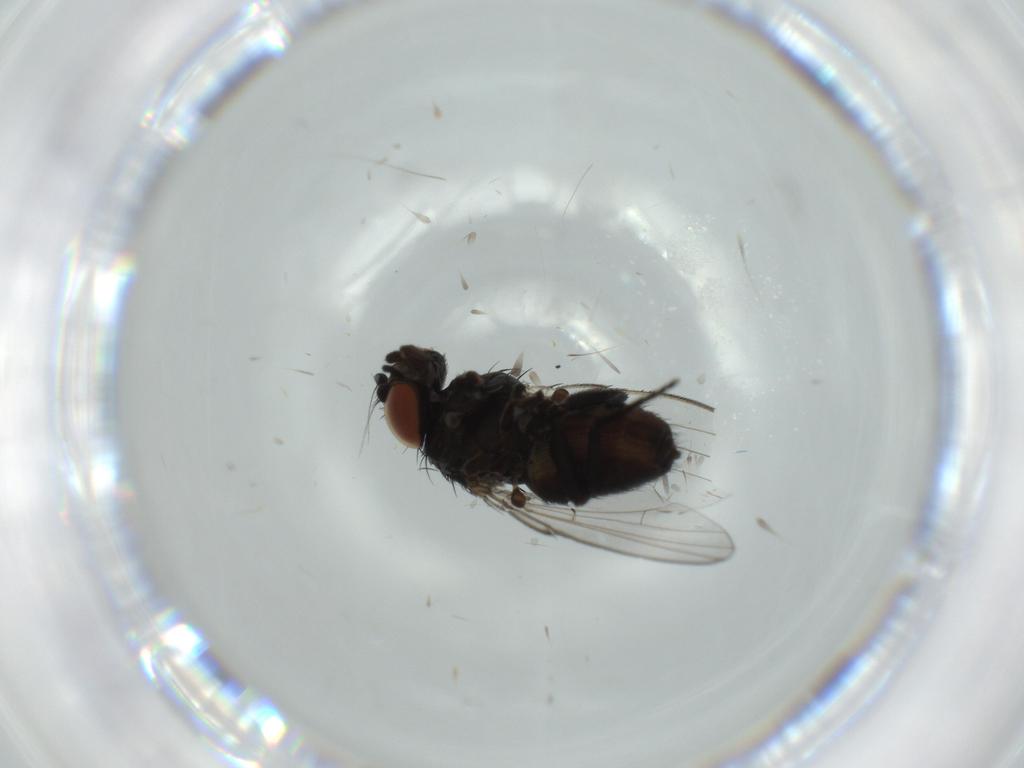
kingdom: Animalia
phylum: Arthropoda
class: Insecta
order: Diptera
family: Milichiidae
